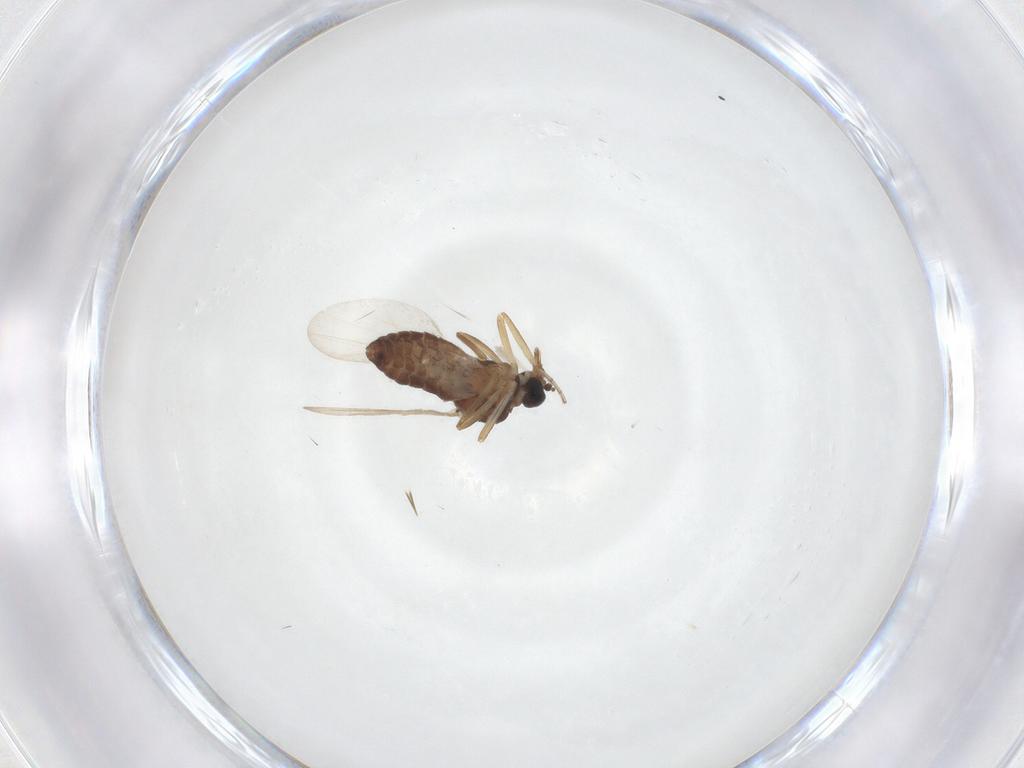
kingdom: Animalia
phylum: Arthropoda
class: Insecta
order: Diptera
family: Ceratopogonidae
